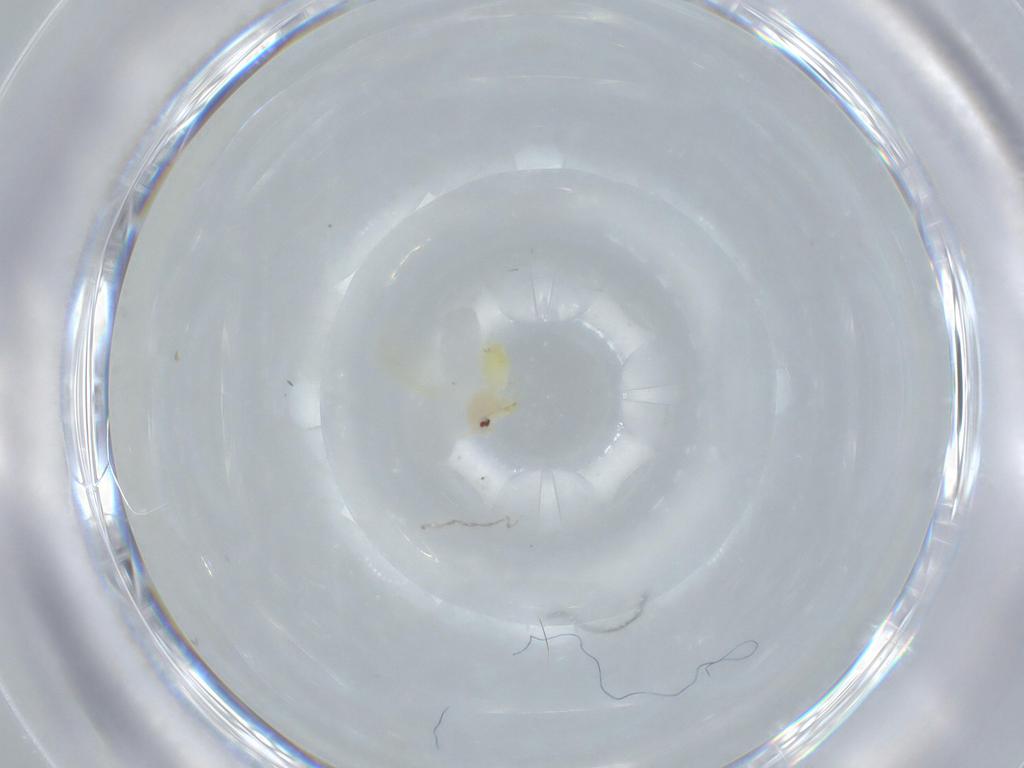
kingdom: Animalia
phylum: Arthropoda
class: Insecta
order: Hemiptera
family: Aleyrodidae
